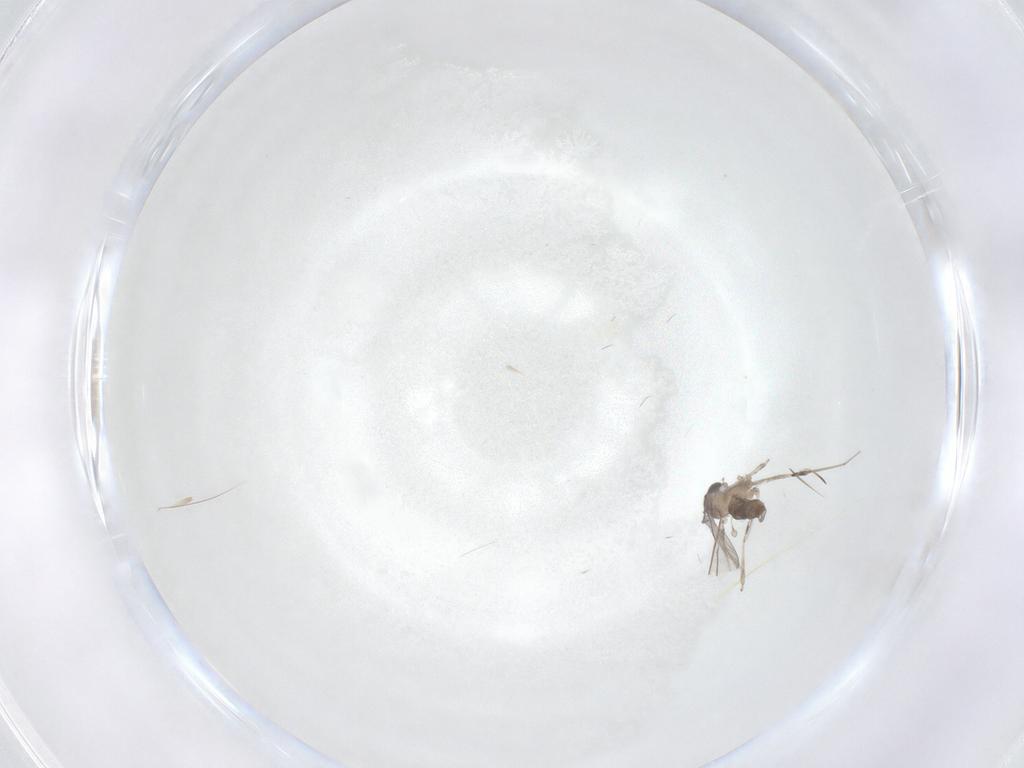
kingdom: Animalia
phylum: Arthropoda
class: Insecta
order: Diptera
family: Cecidomyiidae
